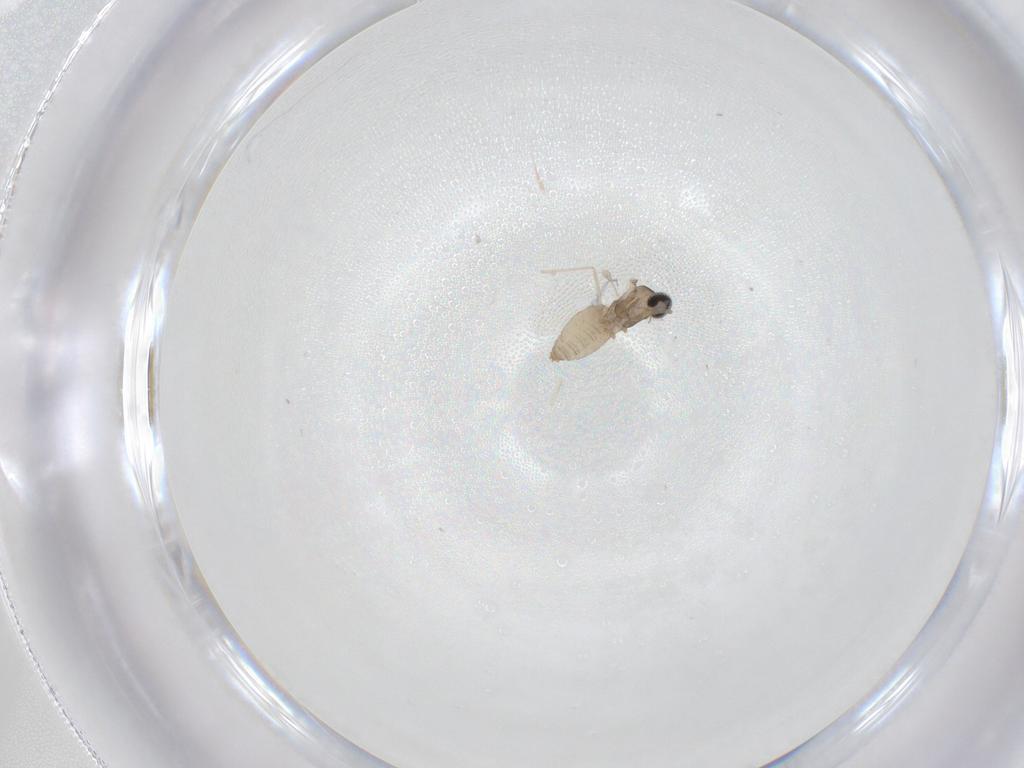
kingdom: Animalia
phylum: Arthropoda
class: Insecta
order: Diptera
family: Cecidomyiidae
